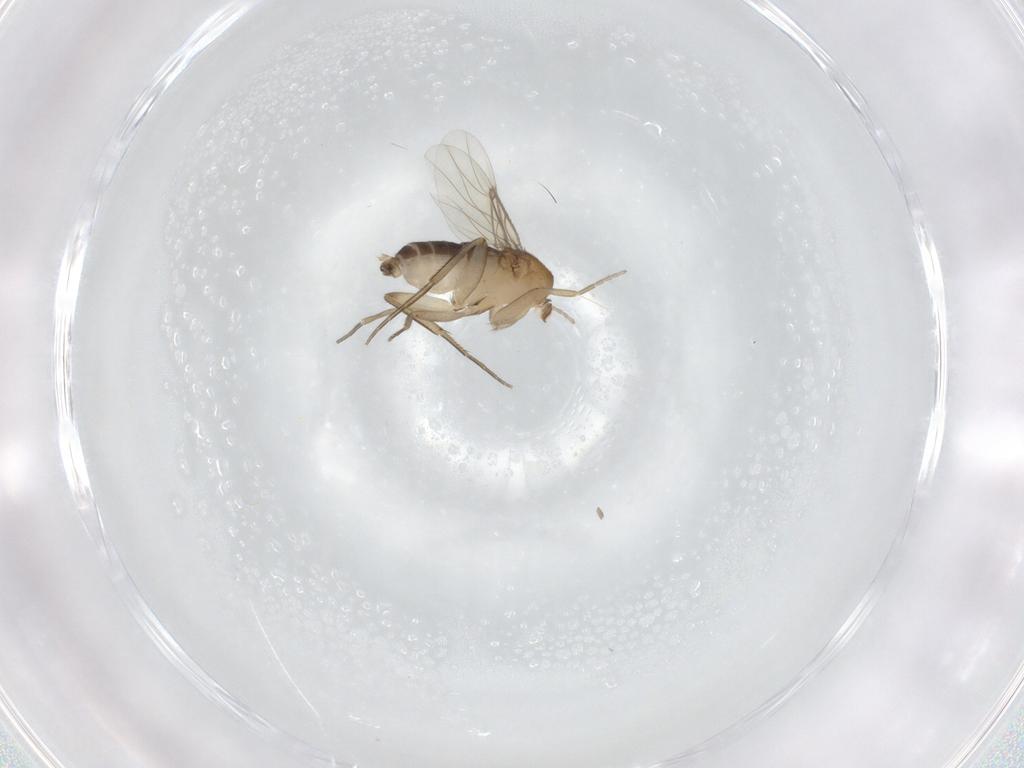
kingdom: Animalia
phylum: Arthropoda
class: Insecta
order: Diptera
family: Phoridae
